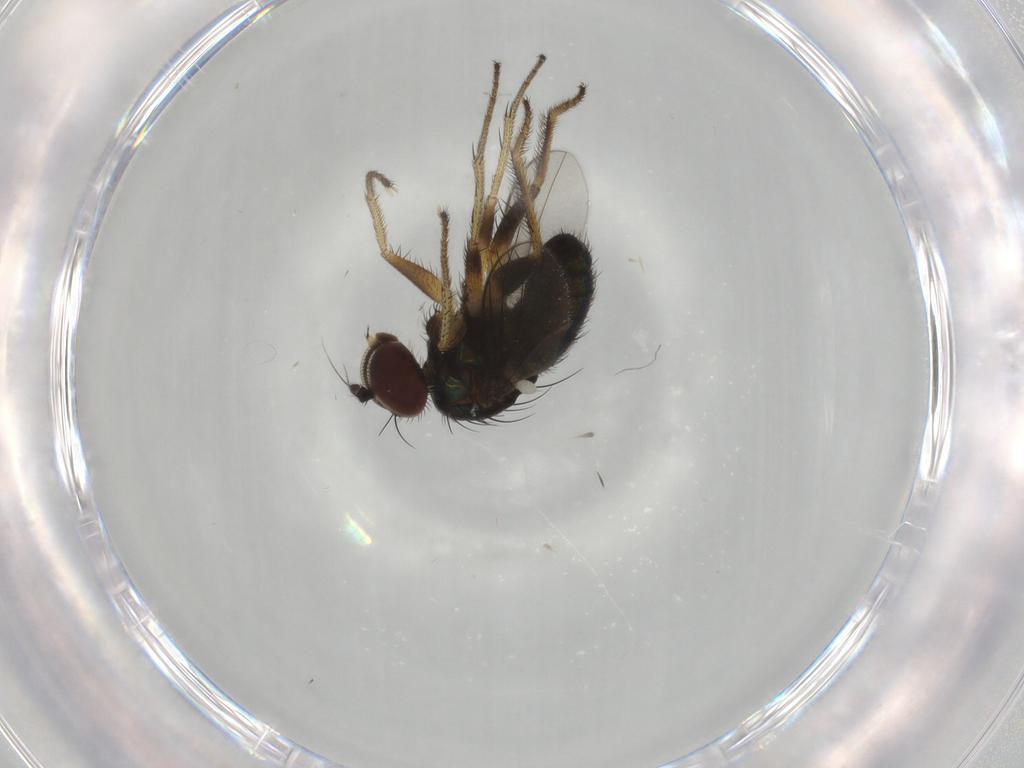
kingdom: Animalia
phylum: Arthropoda
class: Insecta
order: Diptera
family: Dolichopodidae
